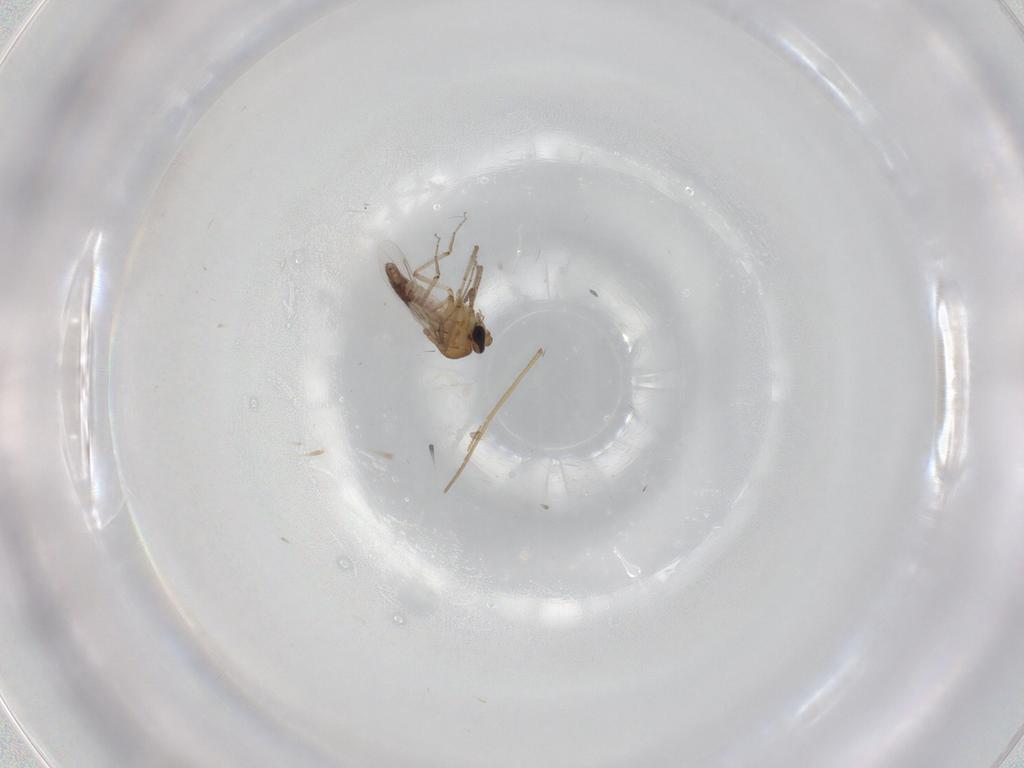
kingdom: Animalia
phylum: Arthropoda
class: Insecta
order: Diptera
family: Chironomidae
